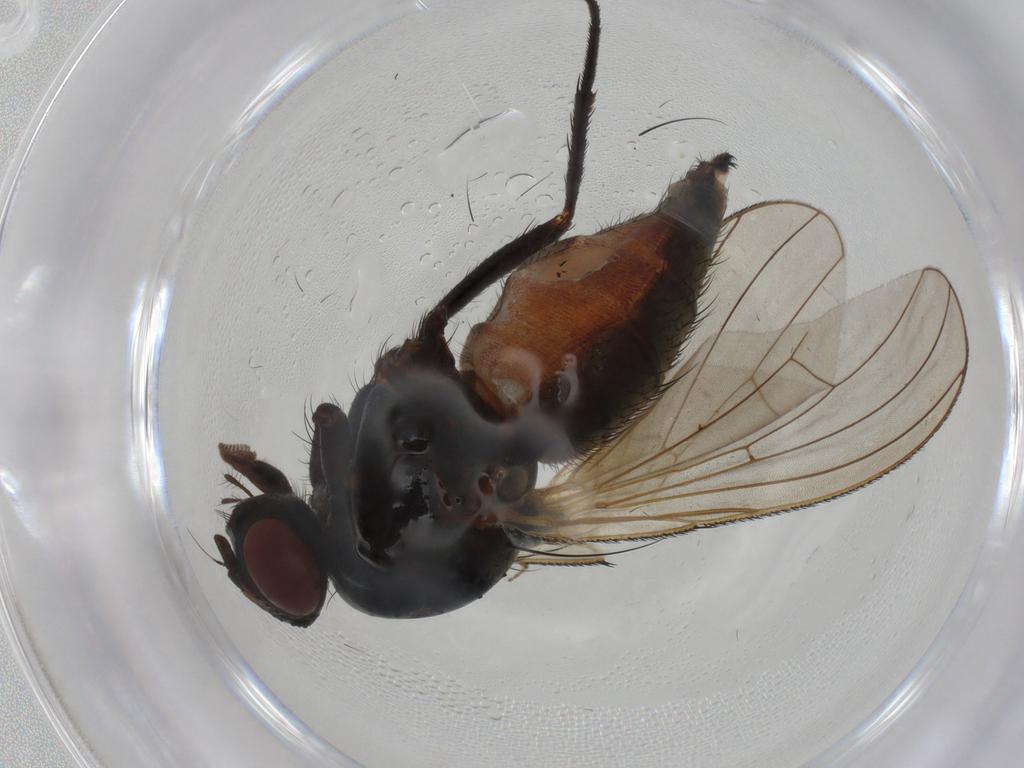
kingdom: Animalia
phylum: Arthropoda
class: Insecta
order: Diptera
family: Anthomyiidae
